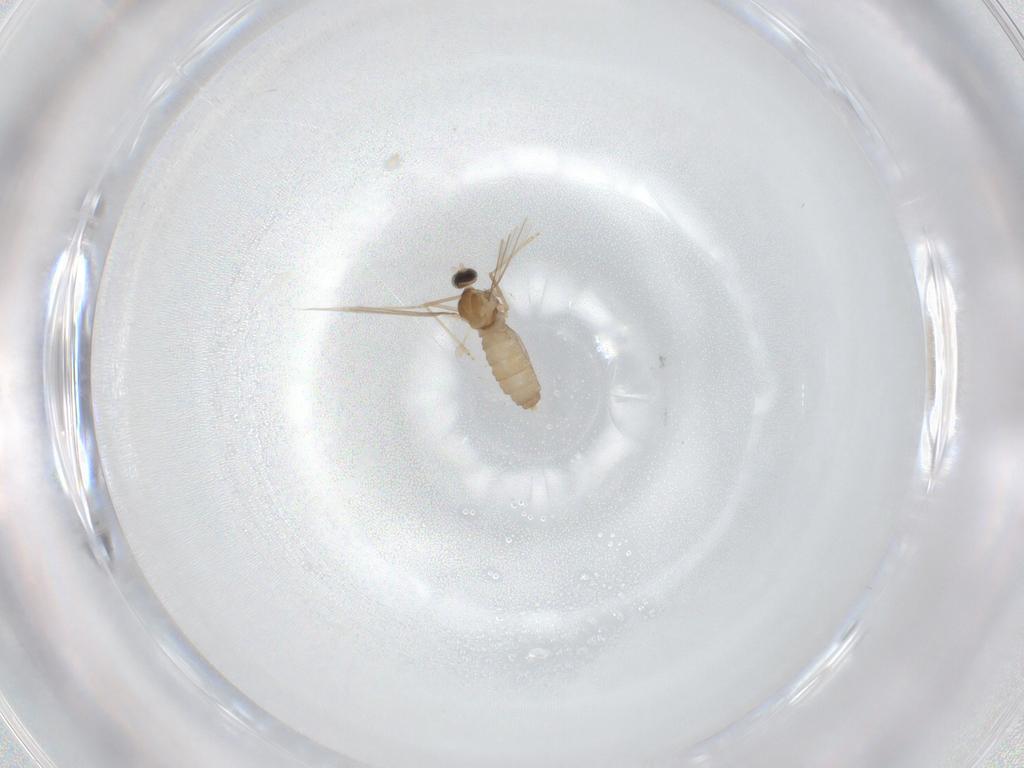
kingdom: Animalia
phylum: Arthropoda
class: Insecta
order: Diptera
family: Cecidomyiidae
